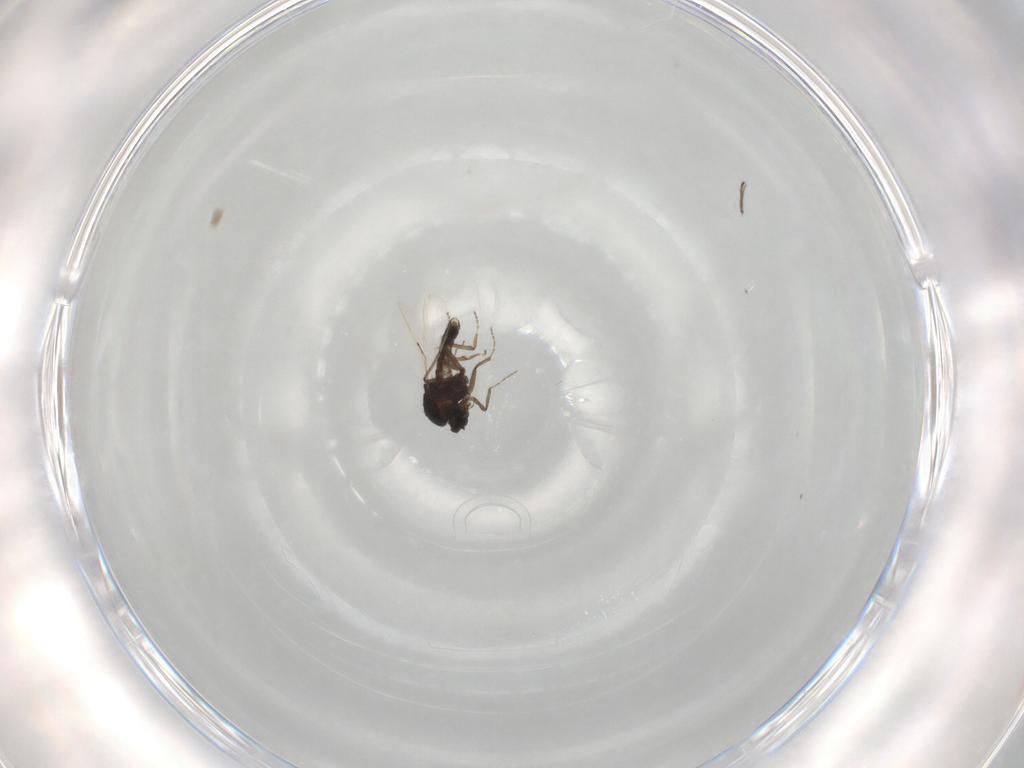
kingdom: Animalia
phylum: Arthropoda
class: Insecta
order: Diptera
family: Ceratopogonidae
